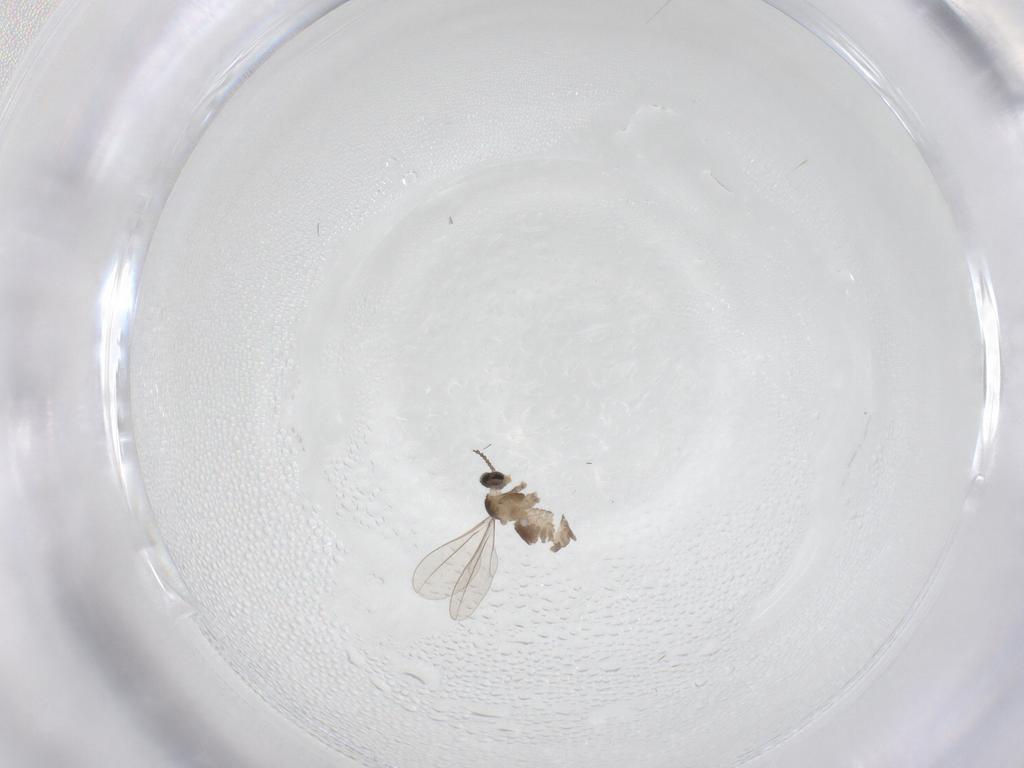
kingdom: Animalia
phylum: Arthropoda
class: Insecta
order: Diptera
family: Cecidomyiidae
